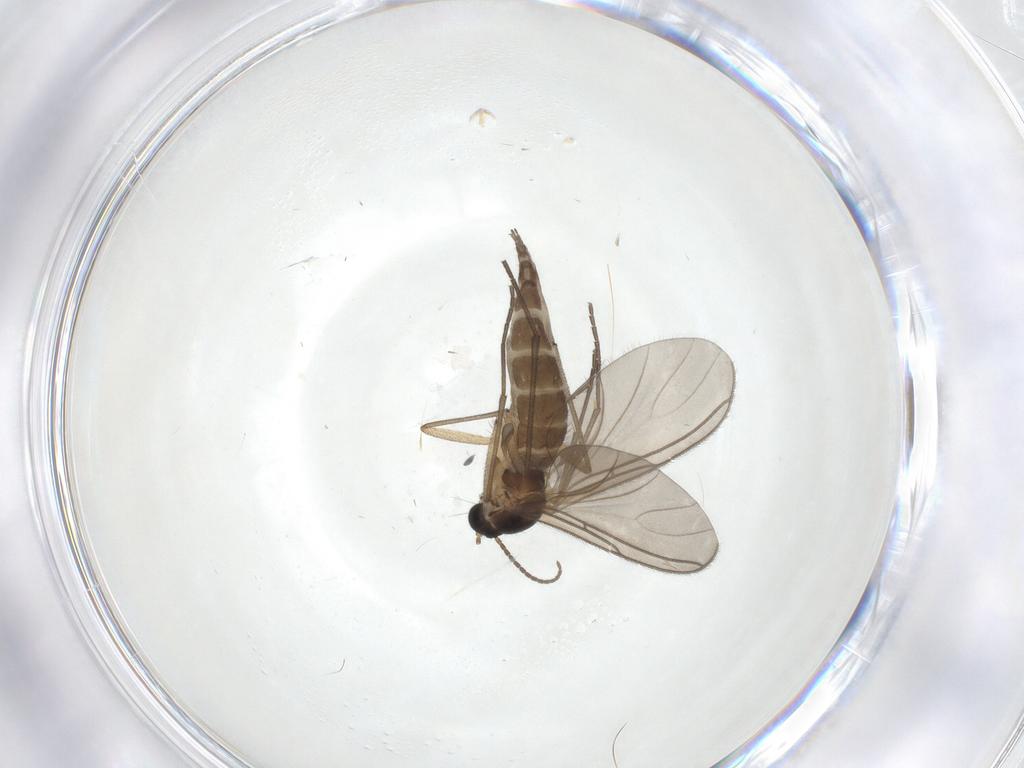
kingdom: Animalia
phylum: Arthropoda
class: Insecta
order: Diptera
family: Sciaridae
